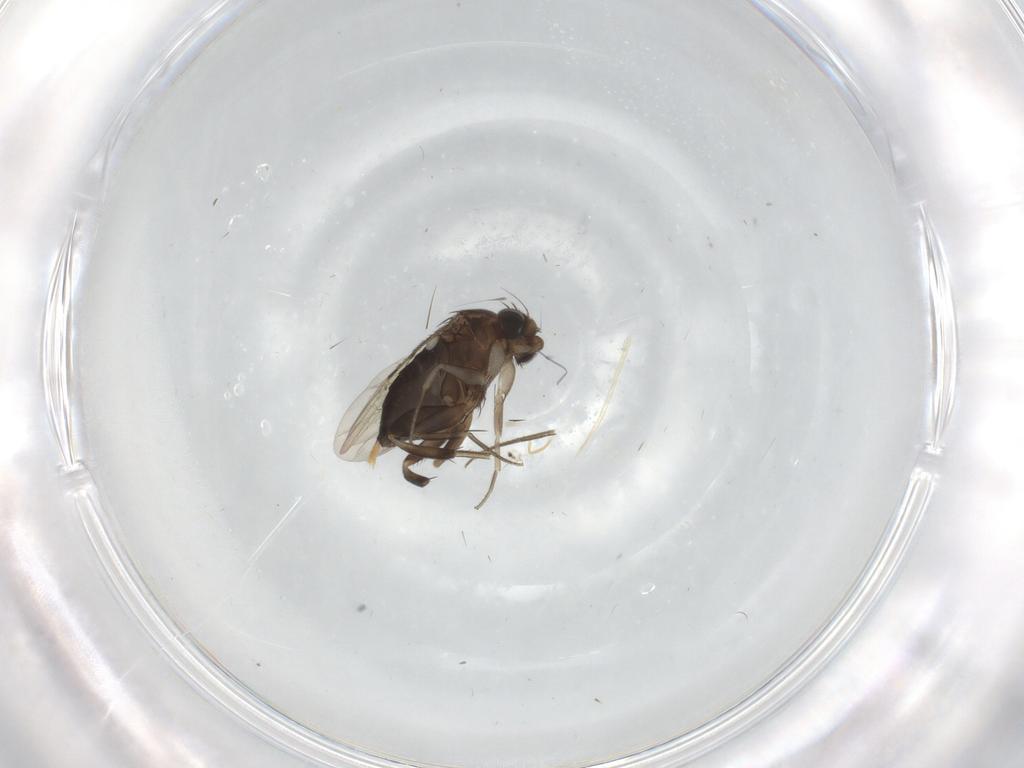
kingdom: Animalia
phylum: Arthropoda
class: Insecta
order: Diptera
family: Phoridae
